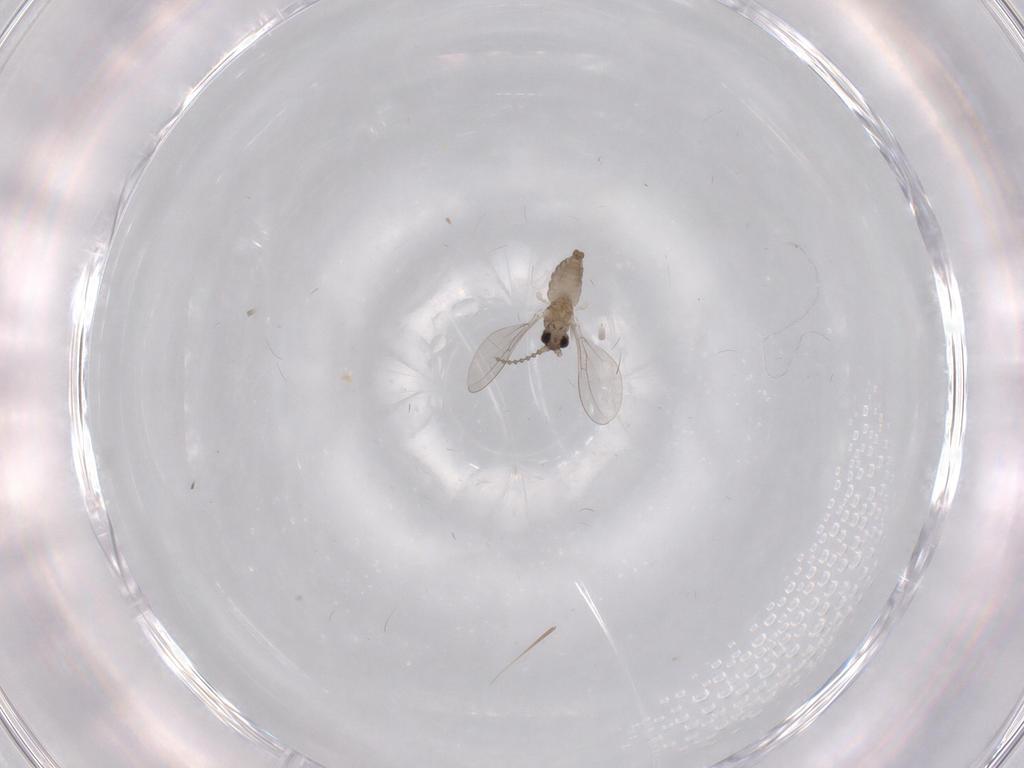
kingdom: Animalia
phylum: Arthropoda
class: Insecta
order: Diptera
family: Cecidomyiidae
